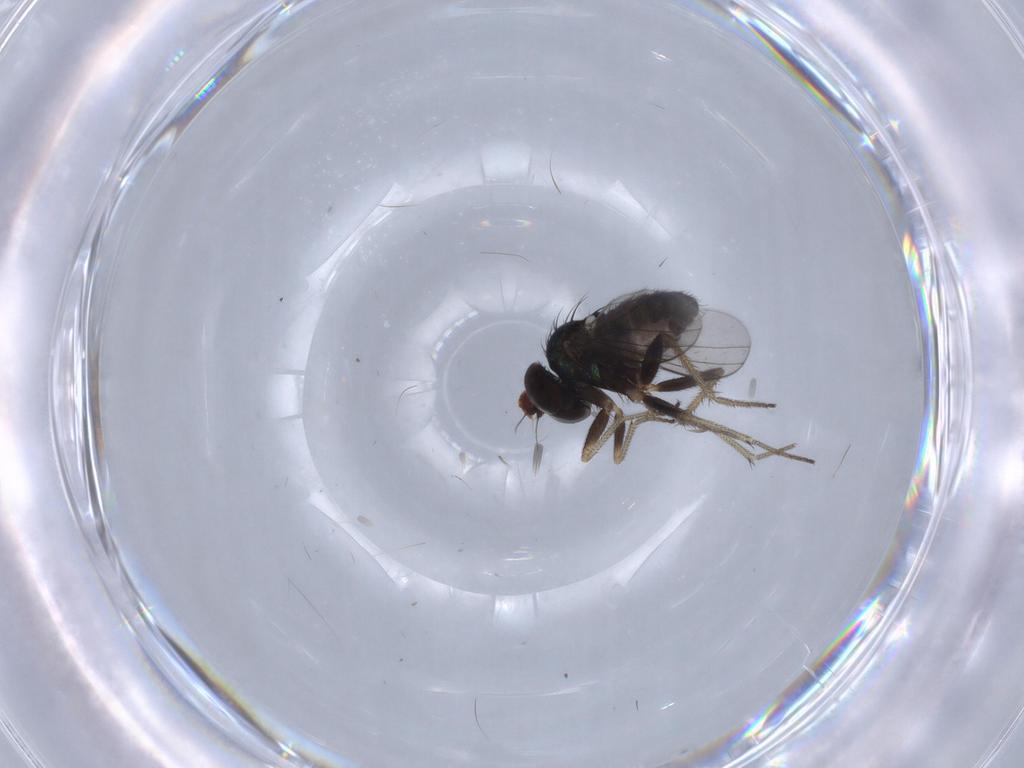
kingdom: Animalia
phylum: Arthropoda
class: Insecta
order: Diptera
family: Dolichopodidae
